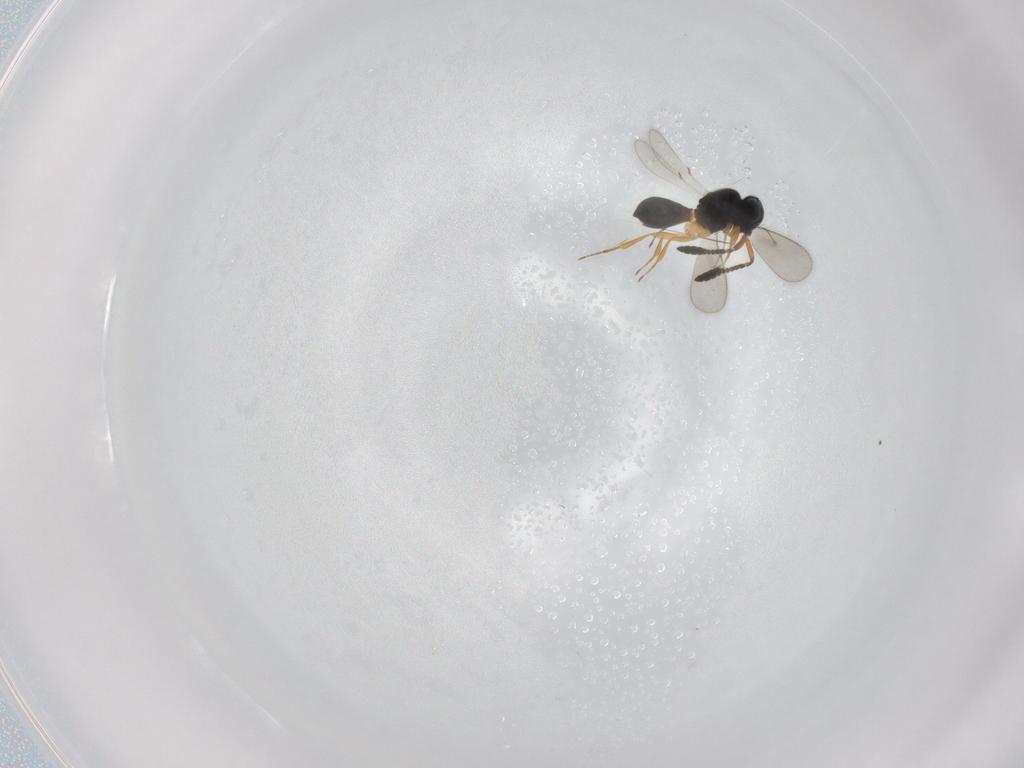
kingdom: Animalia
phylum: Arthropoda
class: Insecta
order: Hymenoptera
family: Scelionidae
